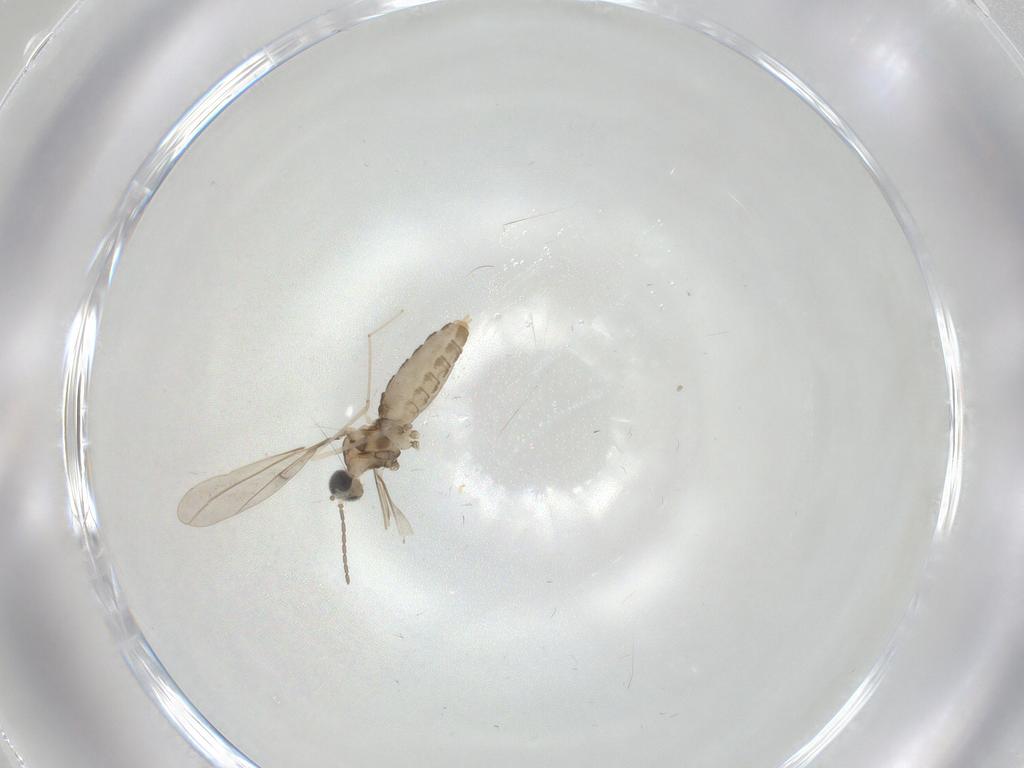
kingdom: Animalia
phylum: Arthropoda
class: Insecta
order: Diptera
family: Cecidomyiidae
